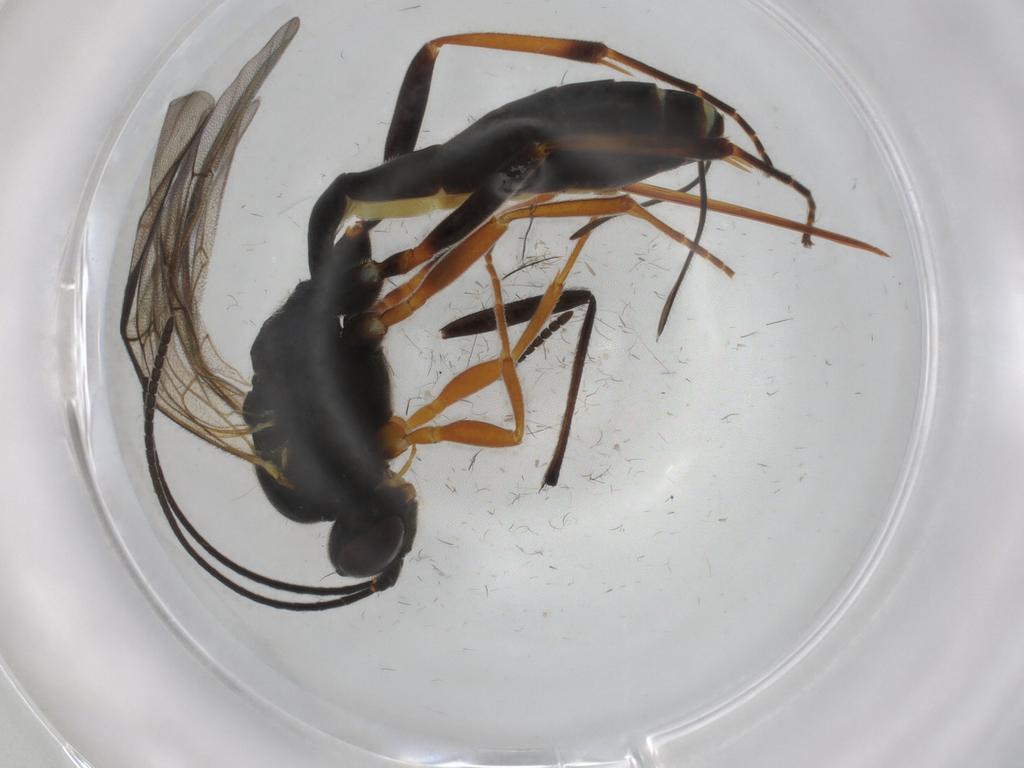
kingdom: Animalia
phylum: Arthropoda
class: Insecta
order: Hymenoptera
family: Ichneumonidae
